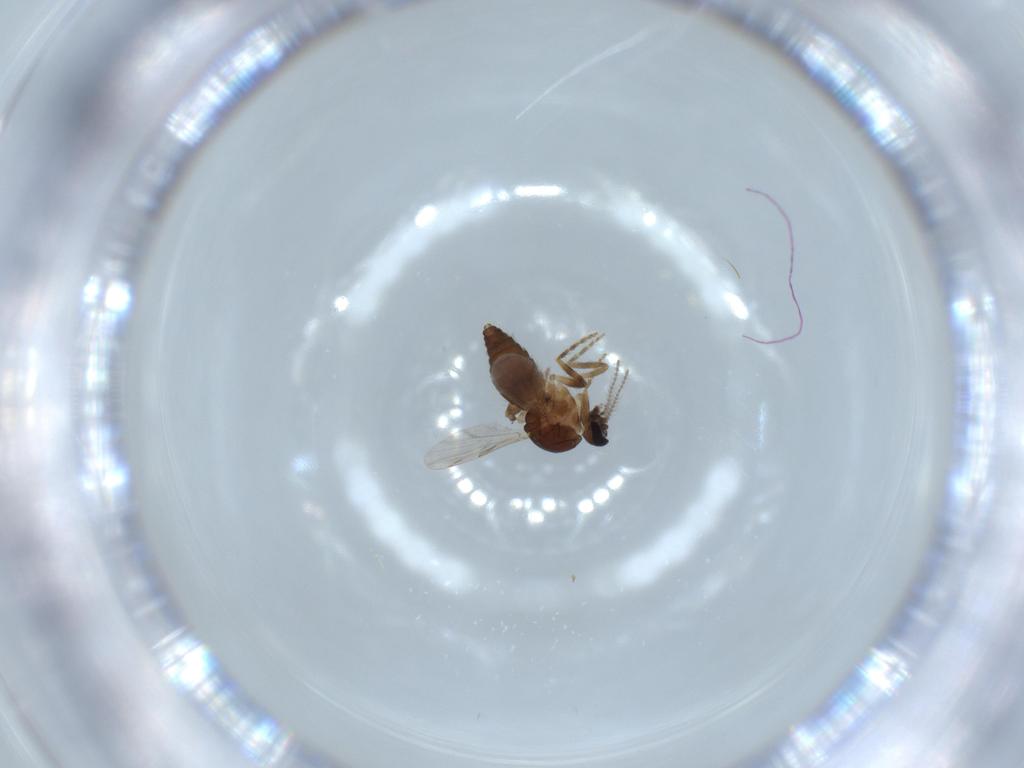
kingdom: Animalia
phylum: Arthropoda
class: Insecta
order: Diptera
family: Ceratopogonidae
